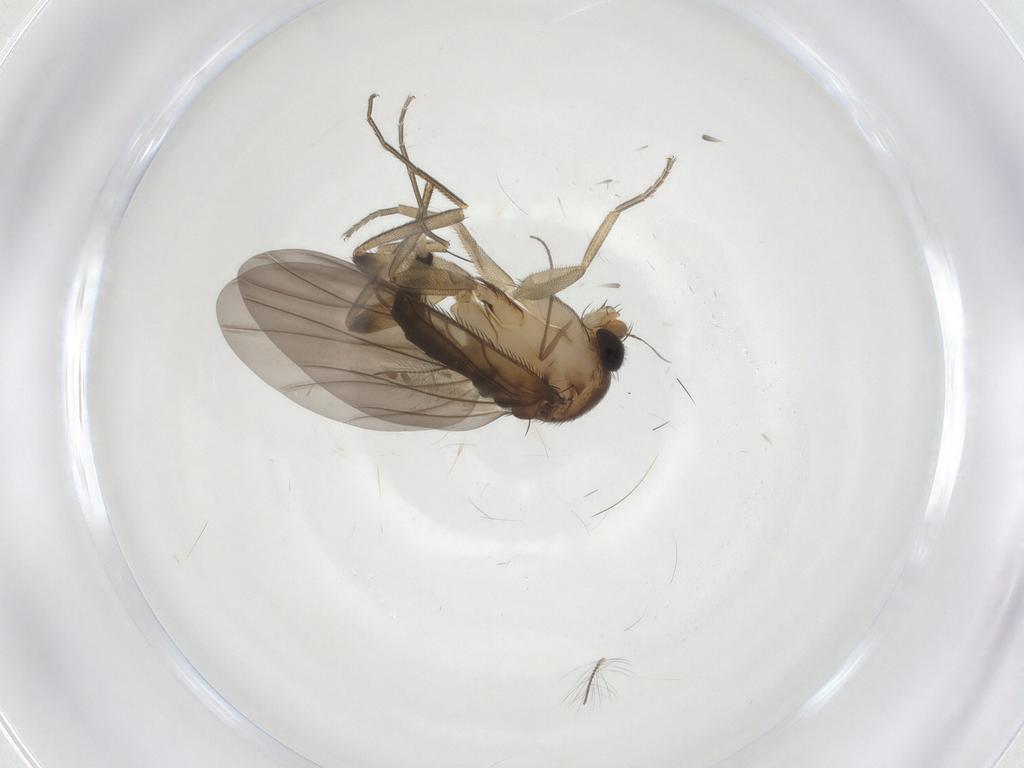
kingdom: Animalia
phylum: Arthropoda
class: Insecta
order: Diptera
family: Phoridae
